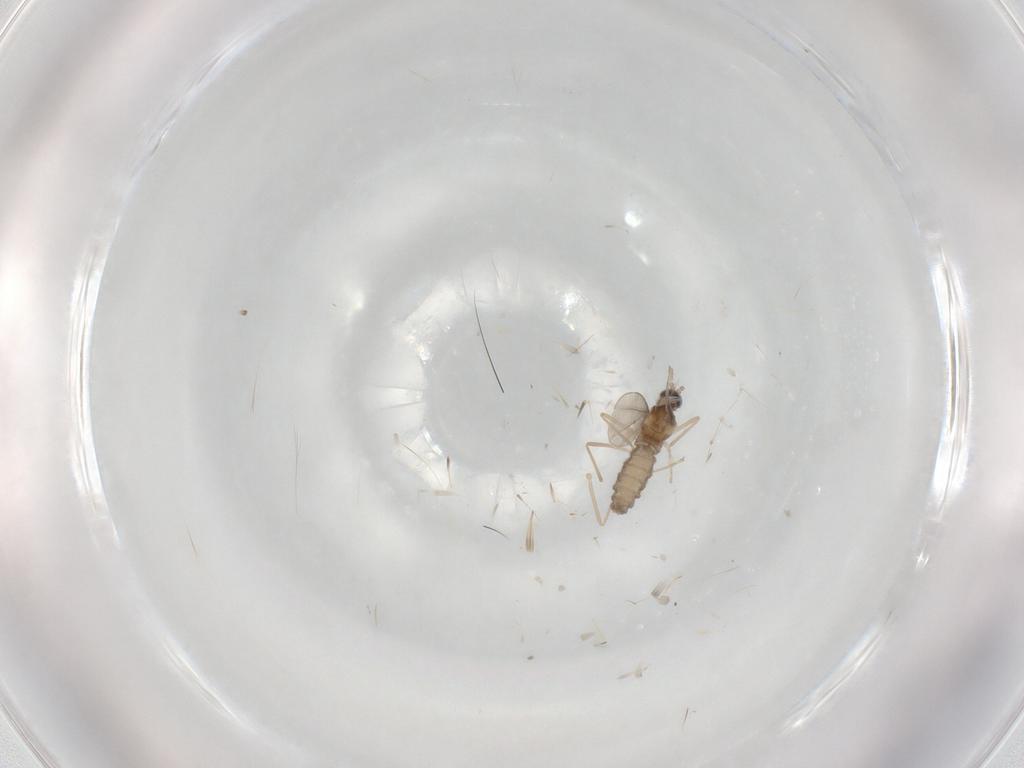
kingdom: Animalia
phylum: Arthropoda
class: Insecta
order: Diptera
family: Cecidomyiidae
